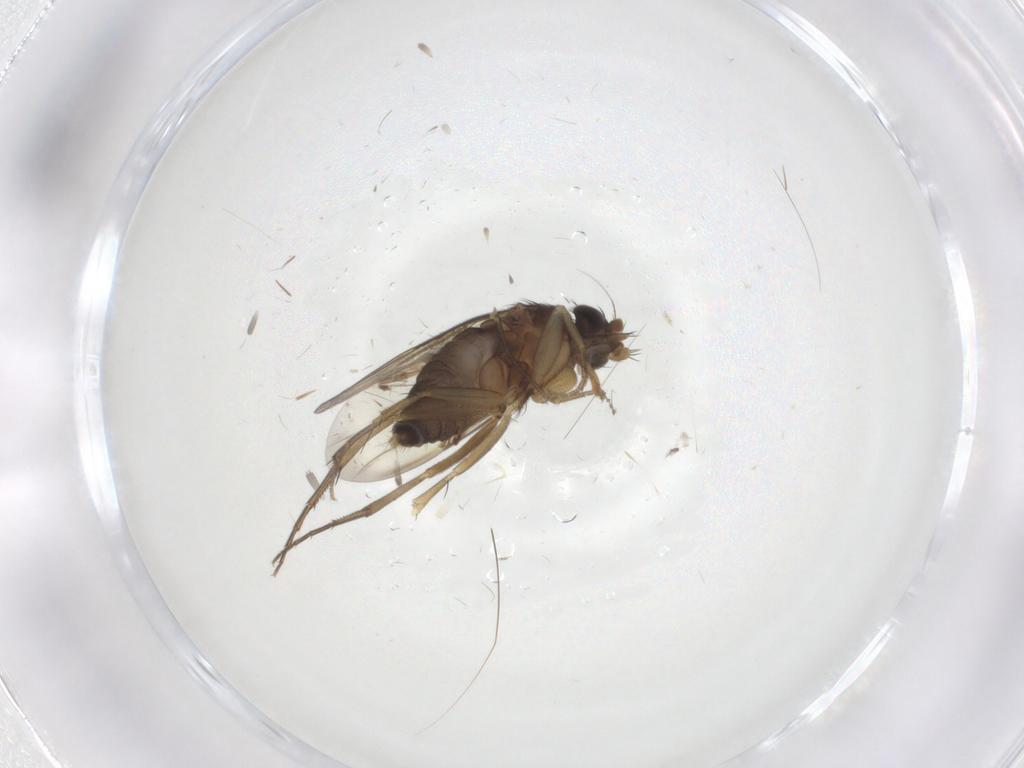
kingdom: Animalia
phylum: Arthropoda
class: Insecta
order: Diptera
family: Phoridae
